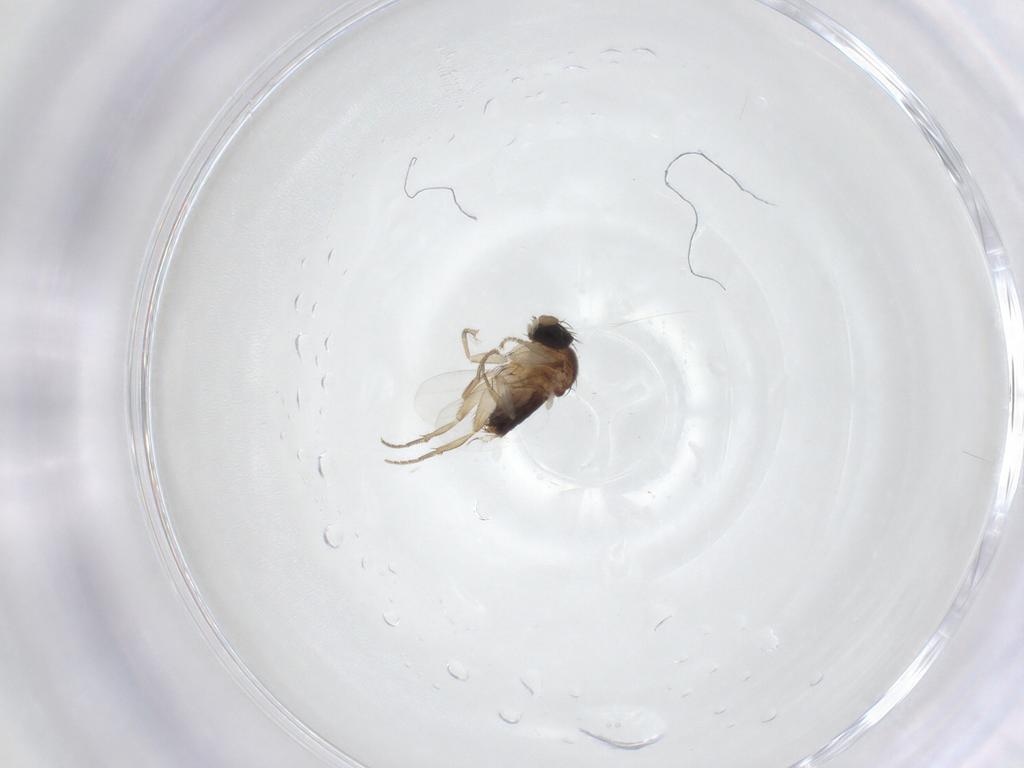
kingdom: Animalia
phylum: Arthropoda
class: Insecta
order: Diptera
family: Phoridae
